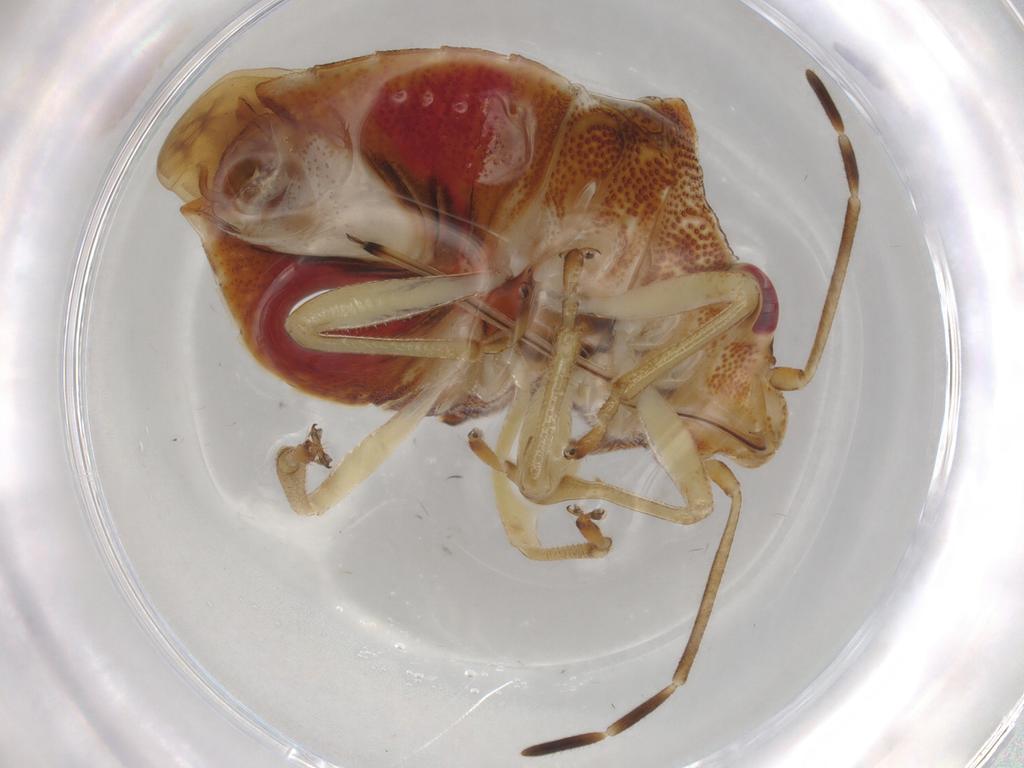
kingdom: Animalia
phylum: Arthropoda
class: Insecta
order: Hemiptera
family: Pentatomidae
